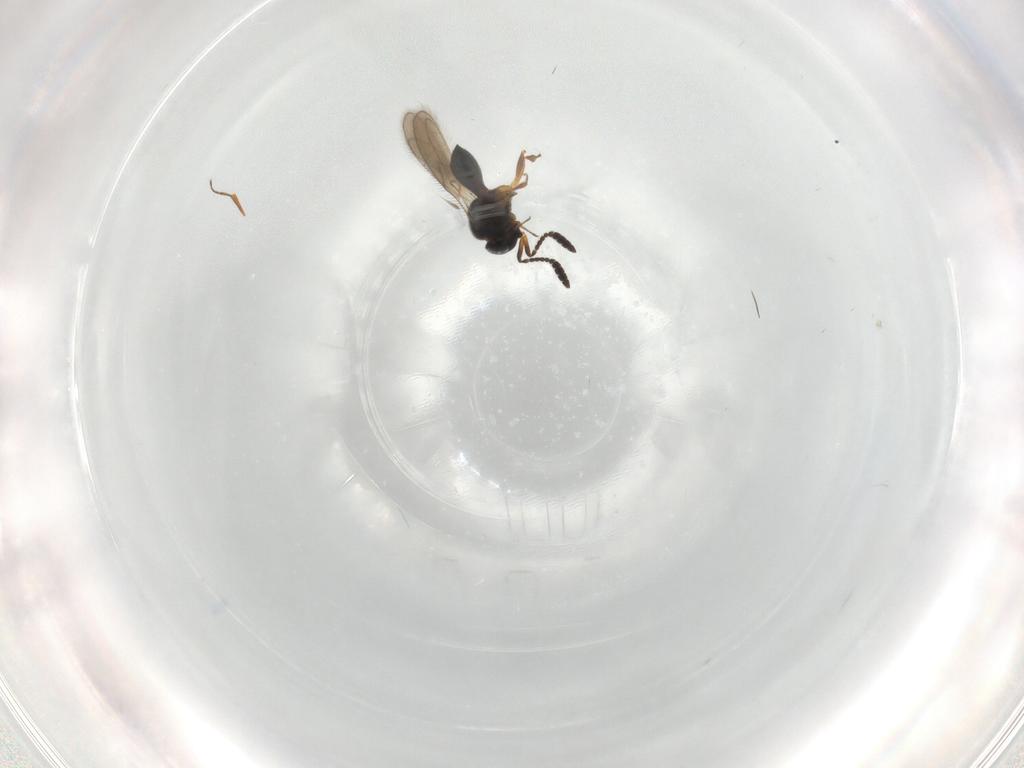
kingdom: Animalia
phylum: Arthropoda
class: Insecta
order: Hymenoptera
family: Scelionidae
